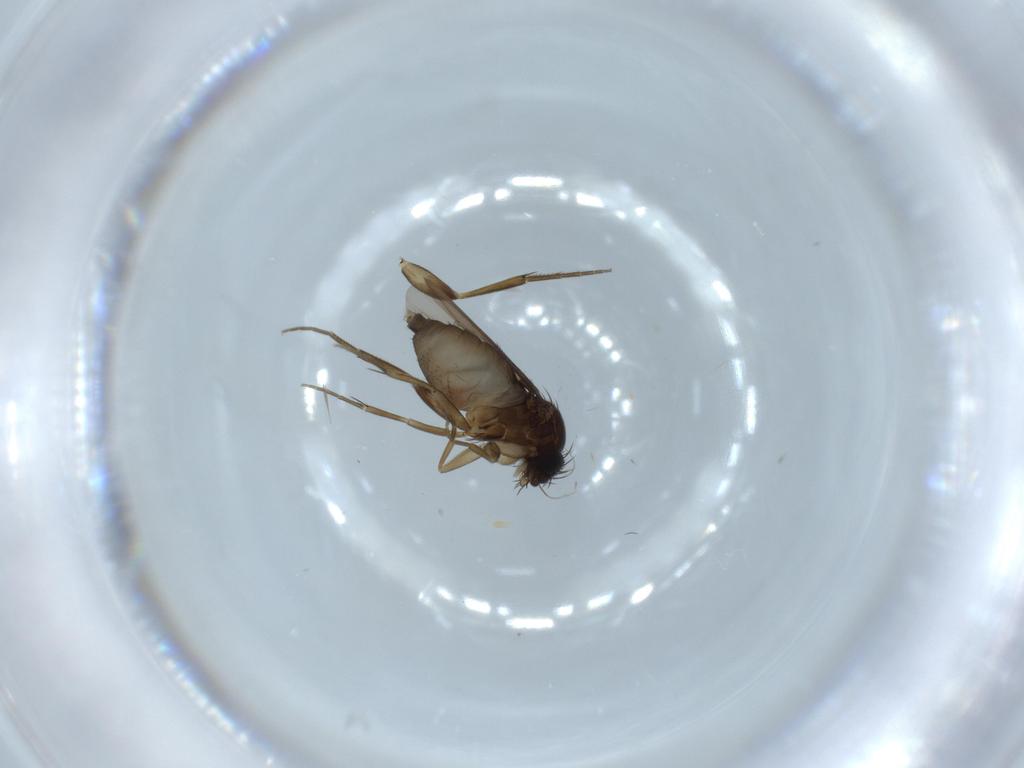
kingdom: Animalia
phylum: Arthropoda
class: Insecta
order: Diptera
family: Phoridae
